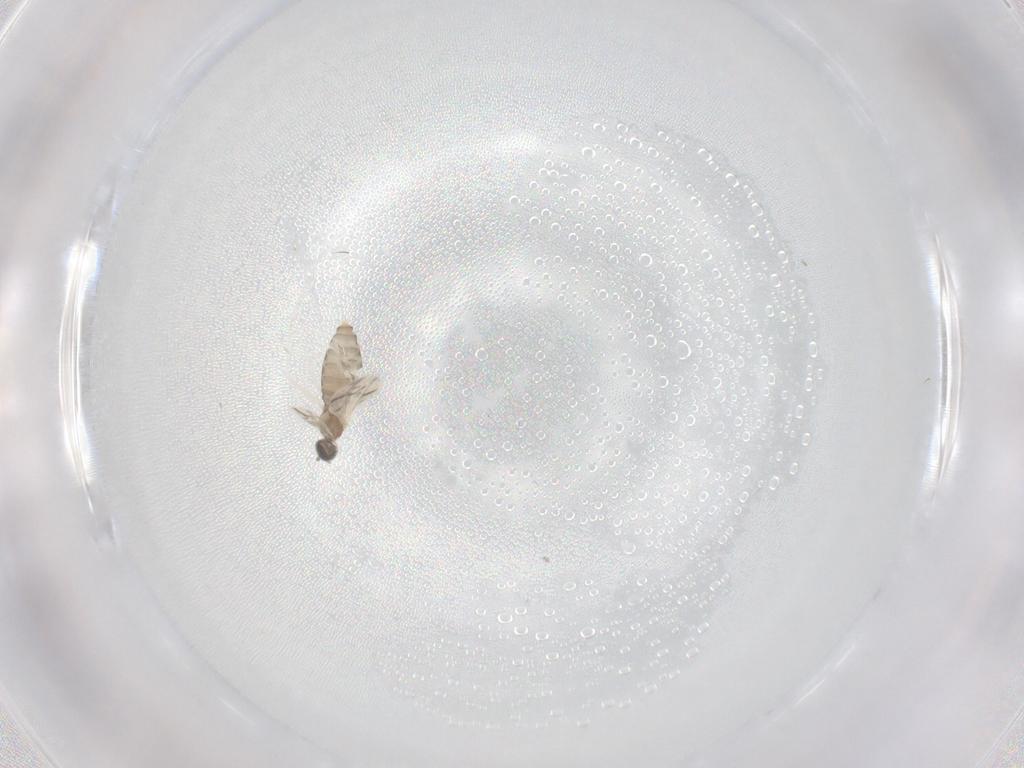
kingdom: Animalia
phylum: Arthropoda
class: Insecta
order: Diptera
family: Cecidomyiidae
